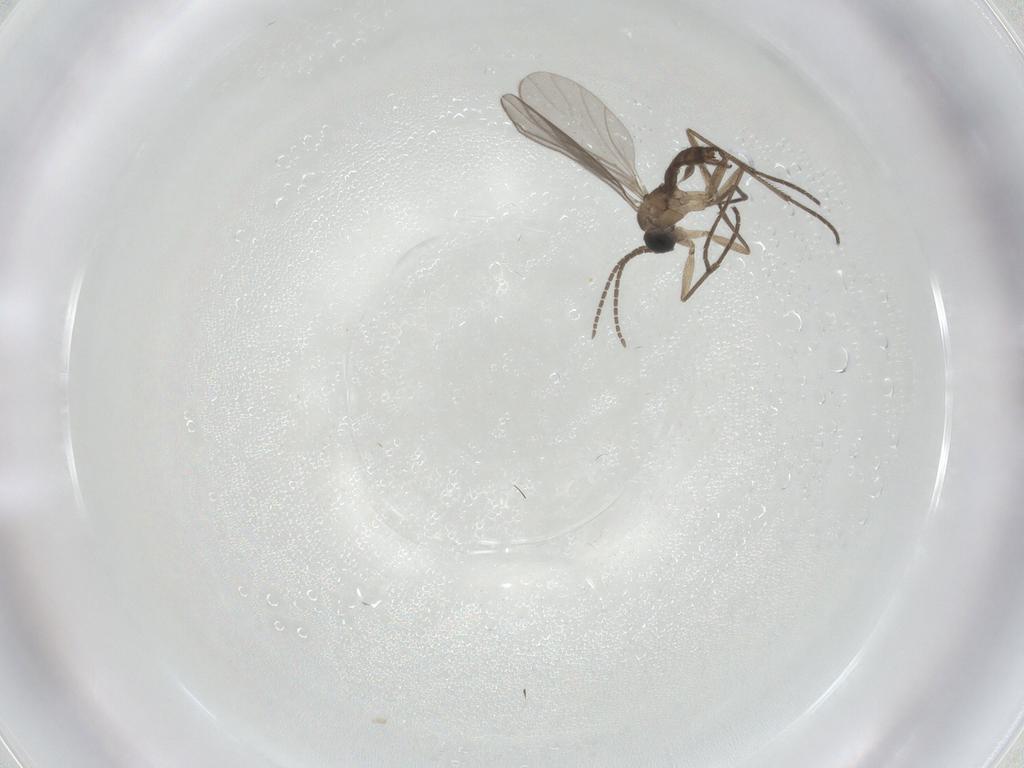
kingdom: Animalia
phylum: Arthropoda
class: Insecta
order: Diptera
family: Sciaridae
